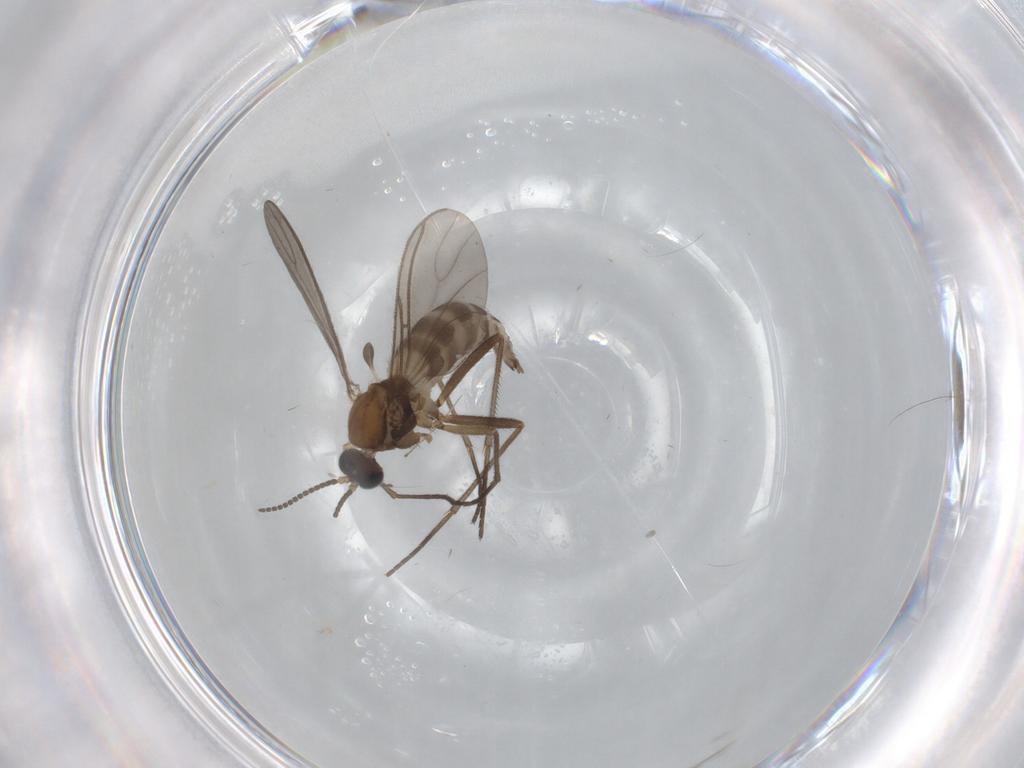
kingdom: Animalia
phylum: Arthropoda
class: Insecta
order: Diptera
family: Sciaridae
